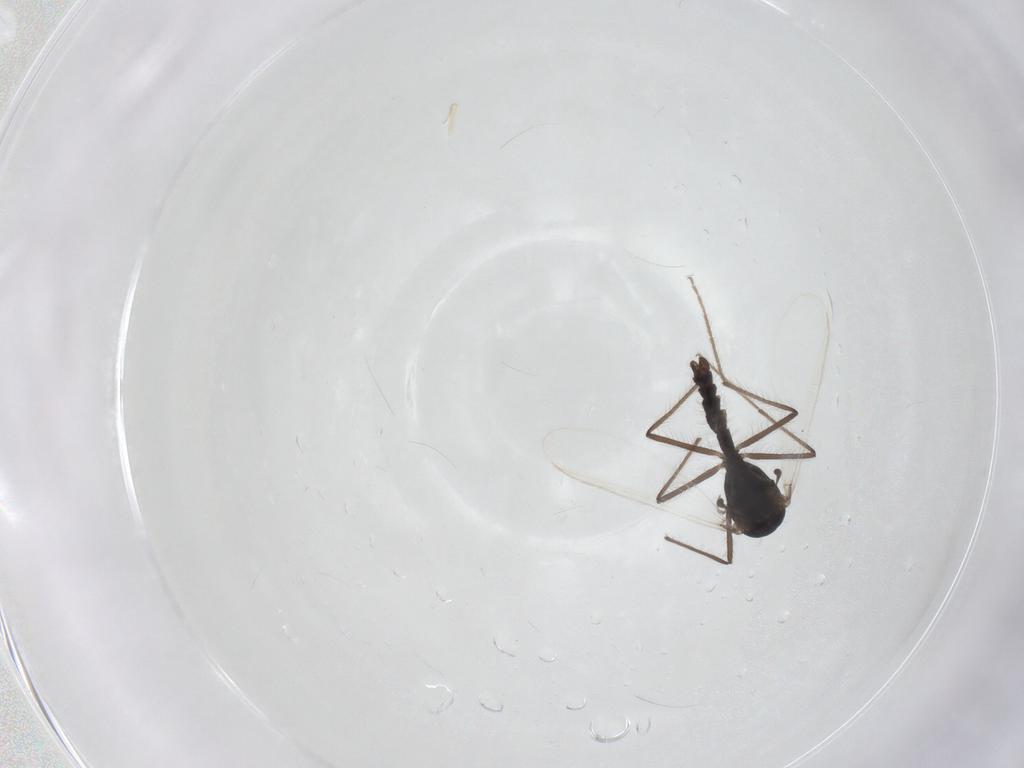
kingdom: Animalia
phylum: Arthropoda
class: Insecta
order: Diptera
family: Chironomidae
